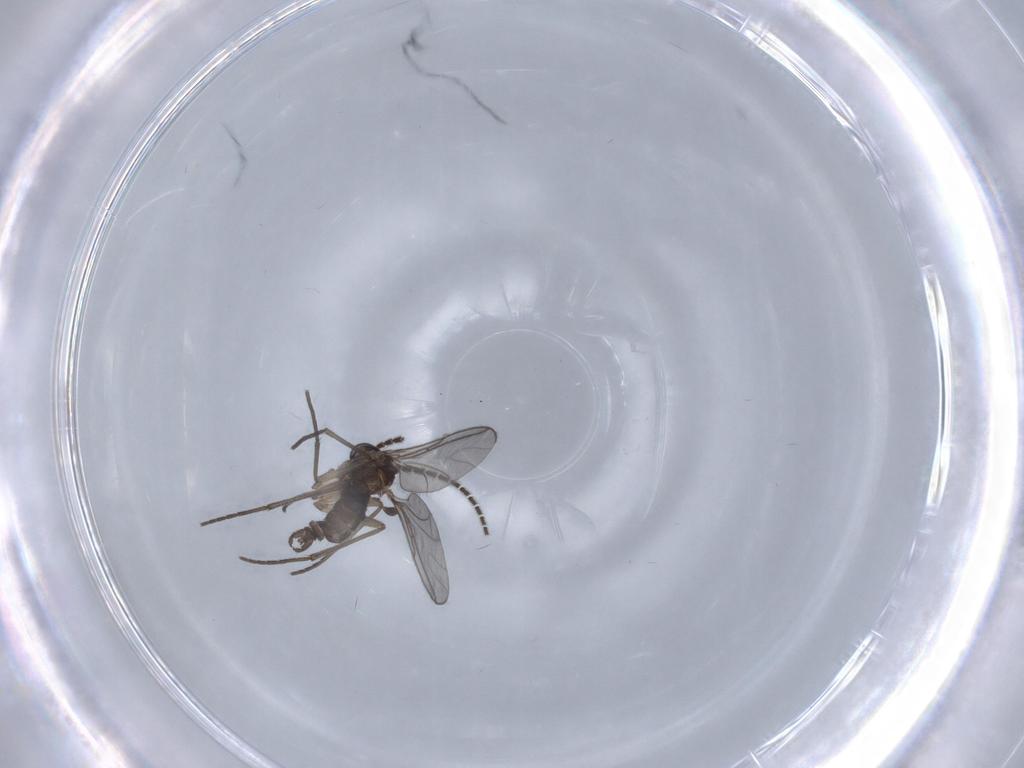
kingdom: Animalia
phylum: Arthropoda
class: Insecta
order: Diptera
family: Sciaridae
